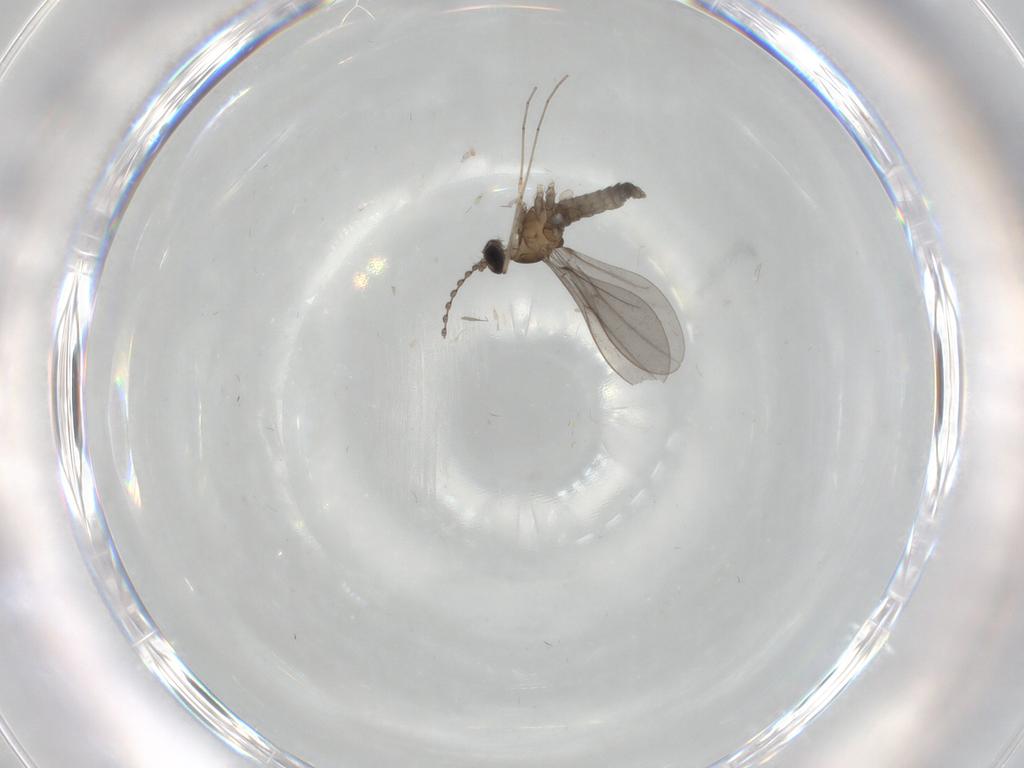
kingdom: Animalia
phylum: Arthropoda
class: Insecta
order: Diptera
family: Cecidomyiidae
